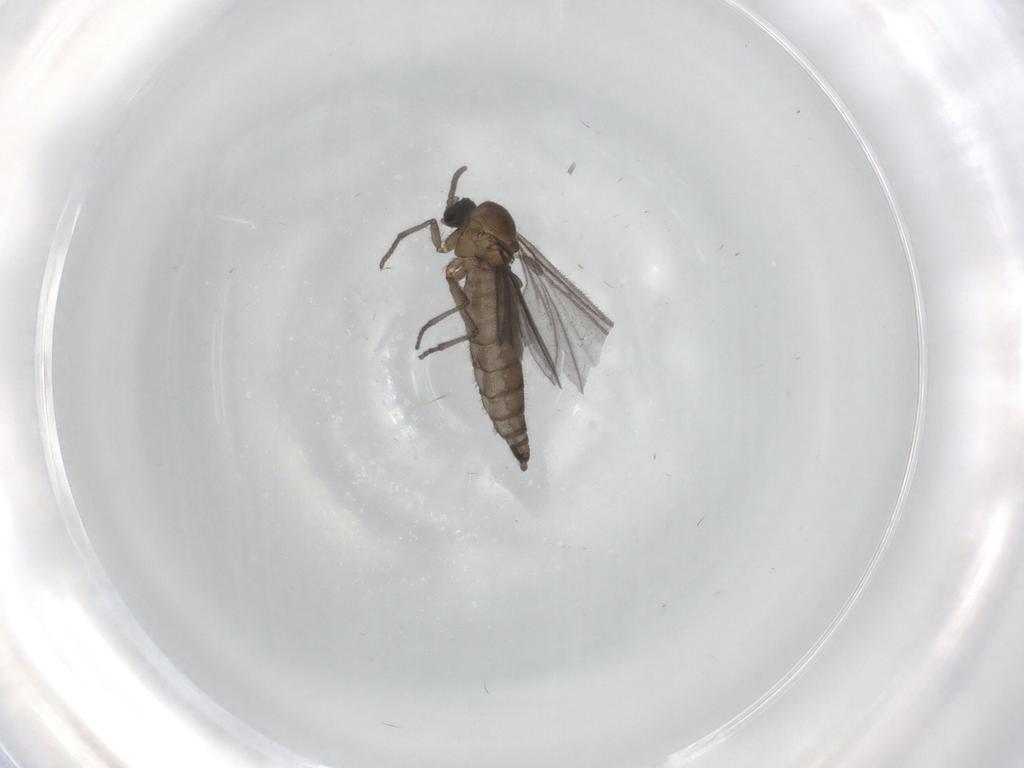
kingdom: Animalia
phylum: Arthropoda
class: Insecta
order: Diptera
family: Sciaridae
